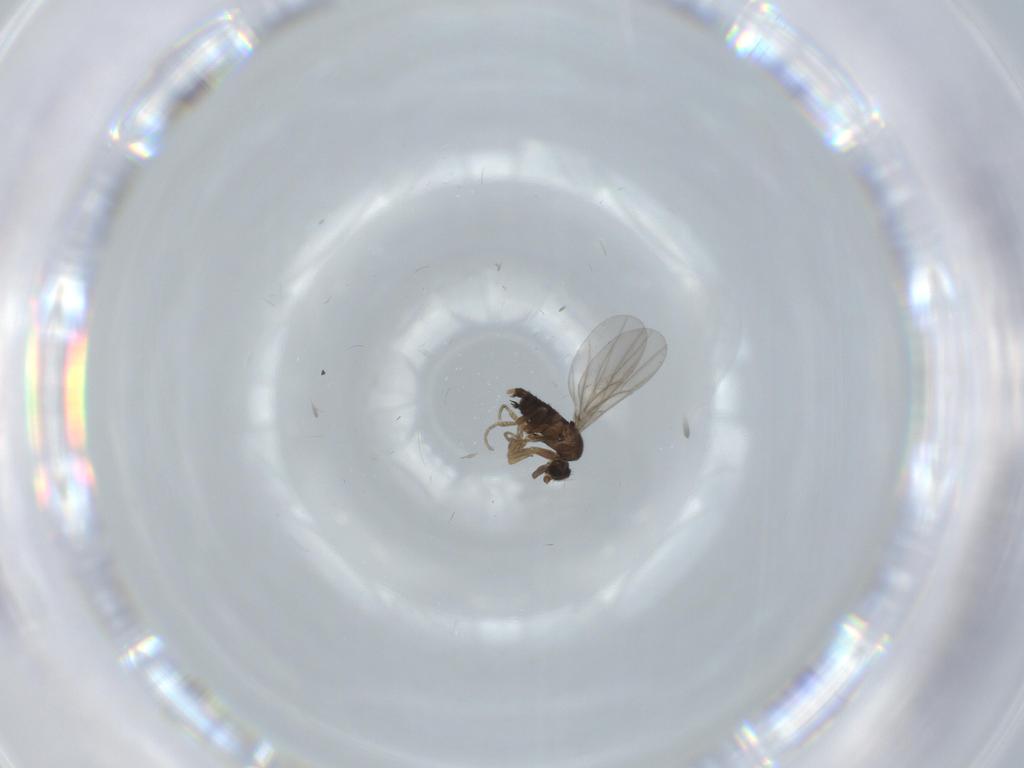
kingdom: Animalia
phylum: Arthropoda
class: Insecta
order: Diptera
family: Chironomidae
